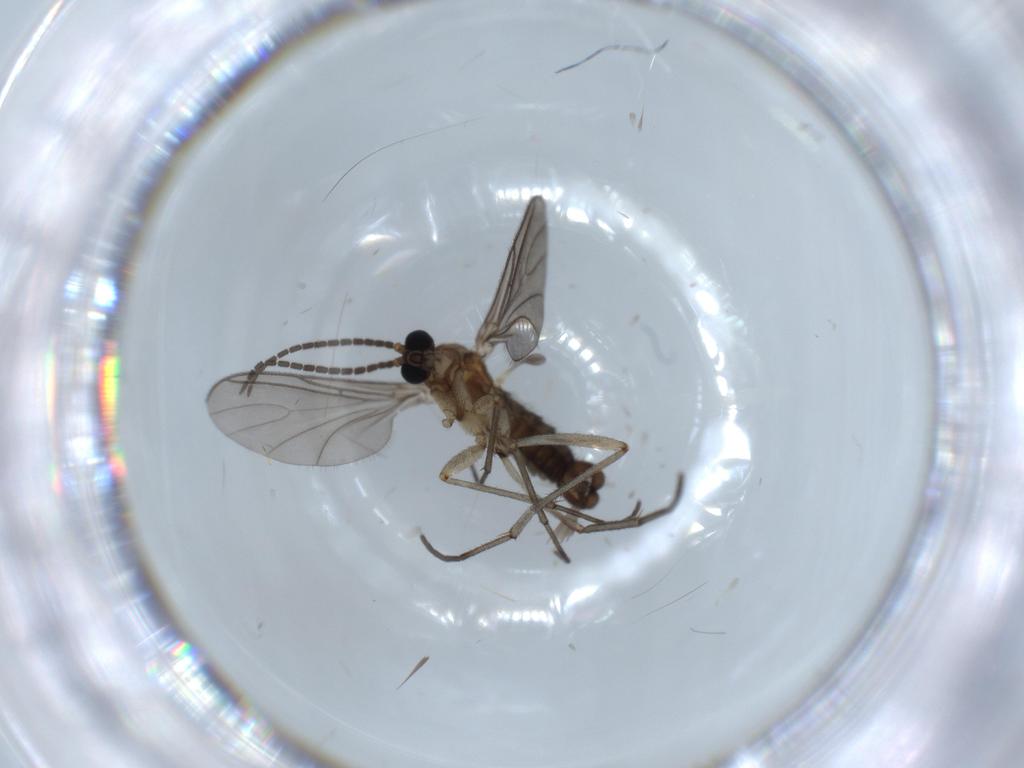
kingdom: Animalia
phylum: Arthropoda
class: Insecta
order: Diptera
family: Sciaridae
